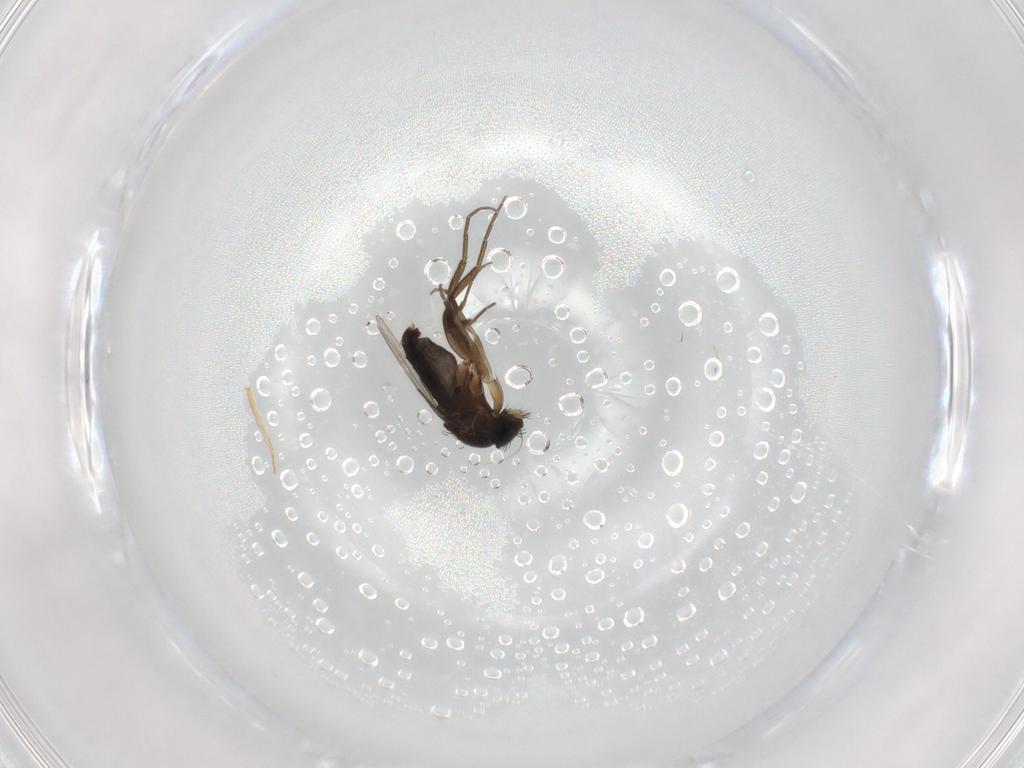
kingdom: Animalia
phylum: Arthropoda
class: Insecta
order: Diptera
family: Phoridae
